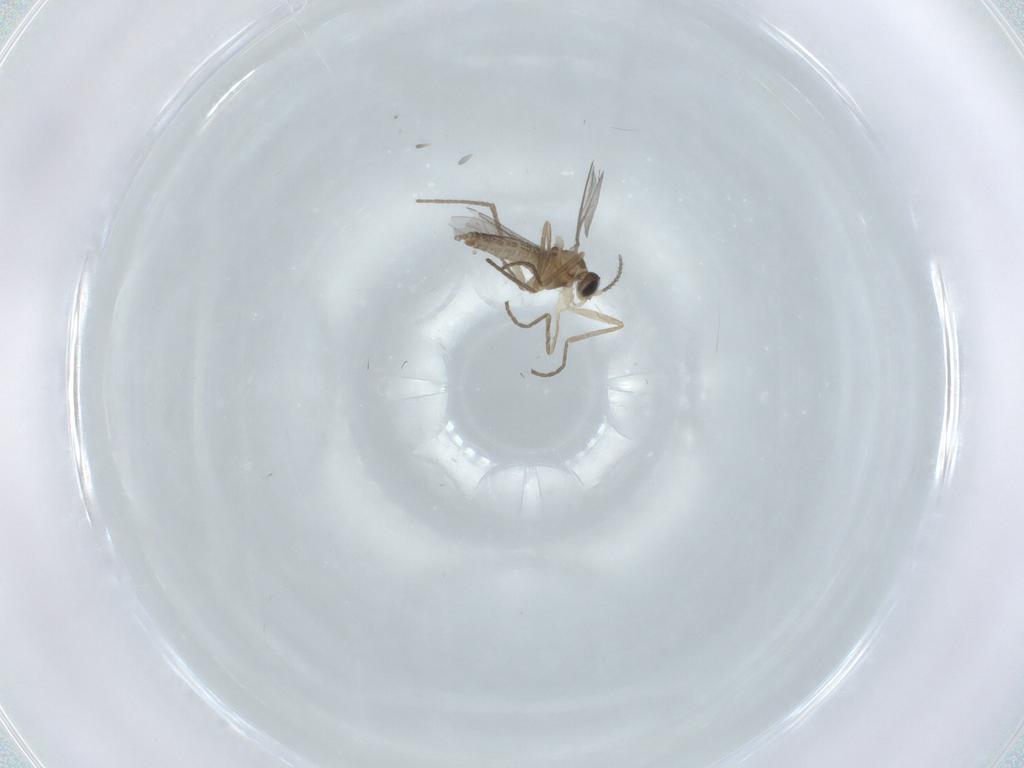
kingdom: Animalia
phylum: Arthropoda
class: Insecta
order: Diptera
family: Cecidomyiidae
